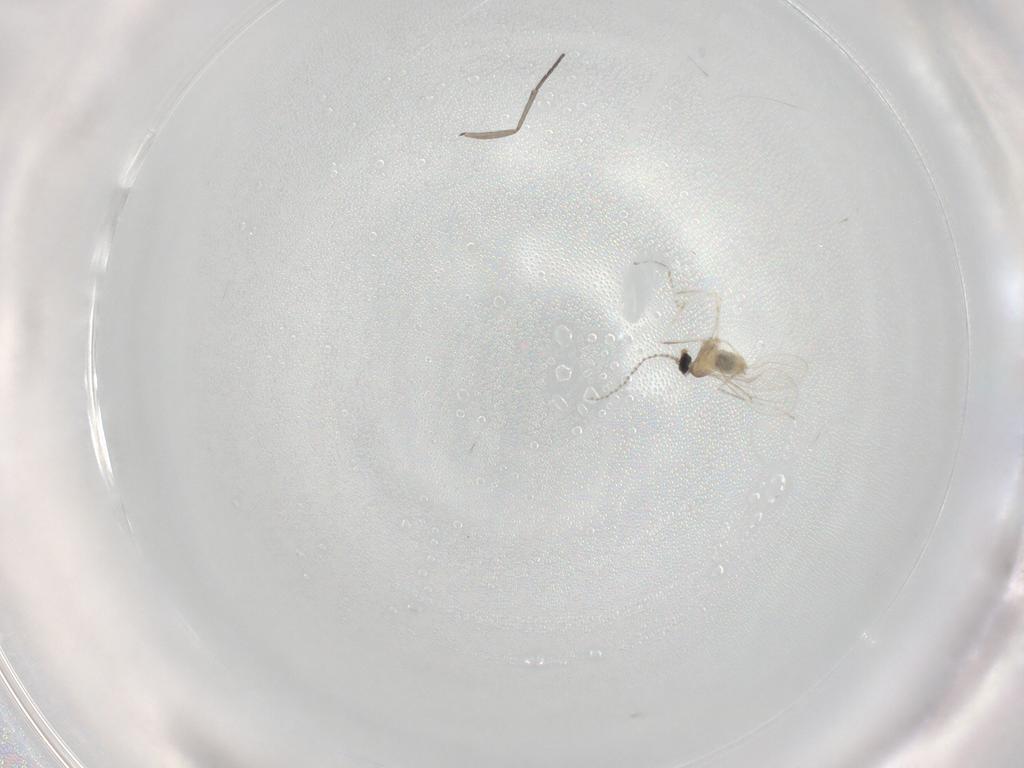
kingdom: Animalia
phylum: Arthropoda
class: Insecta
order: Diptera
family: Cecidomyiidae
